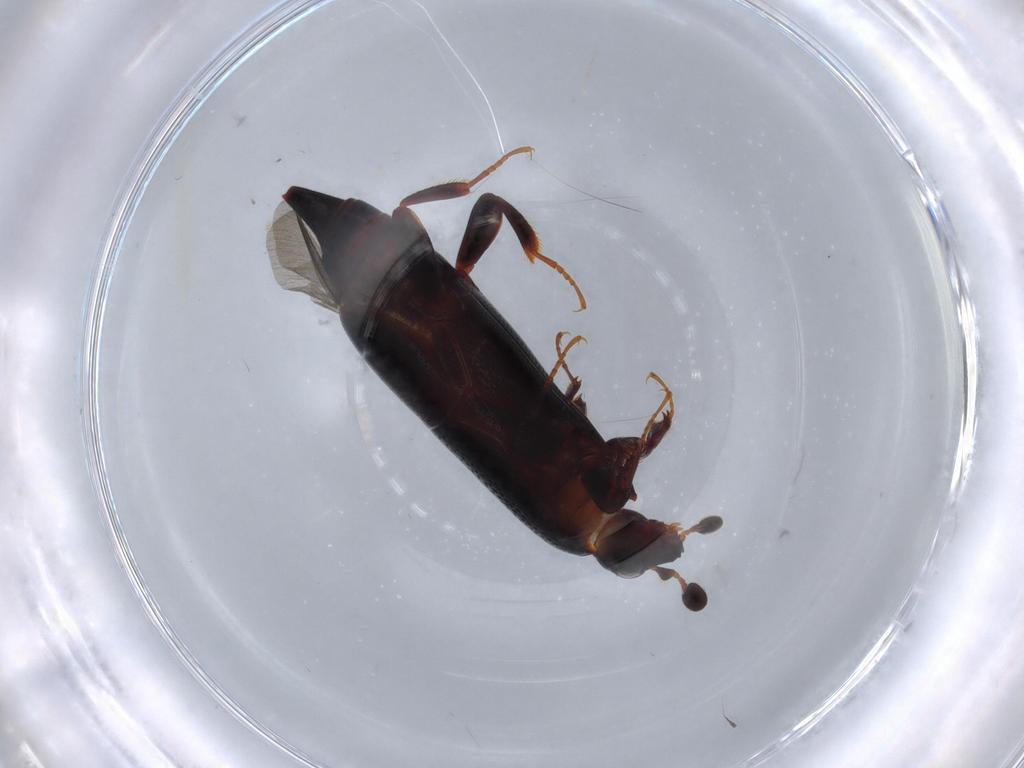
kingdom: Animalia
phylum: Arthropoda
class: Insecta
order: Coleoptera
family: Histeridae
